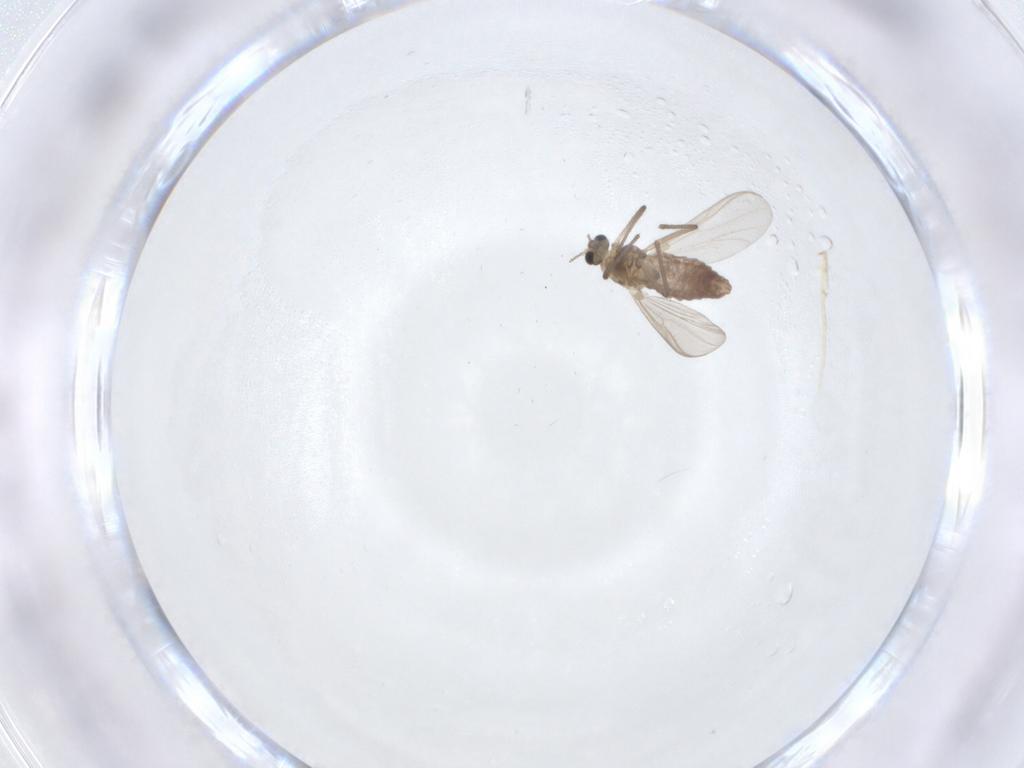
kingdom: Animalia
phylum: Arthropoda
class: Insecta
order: Diptera
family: Chironomidae
